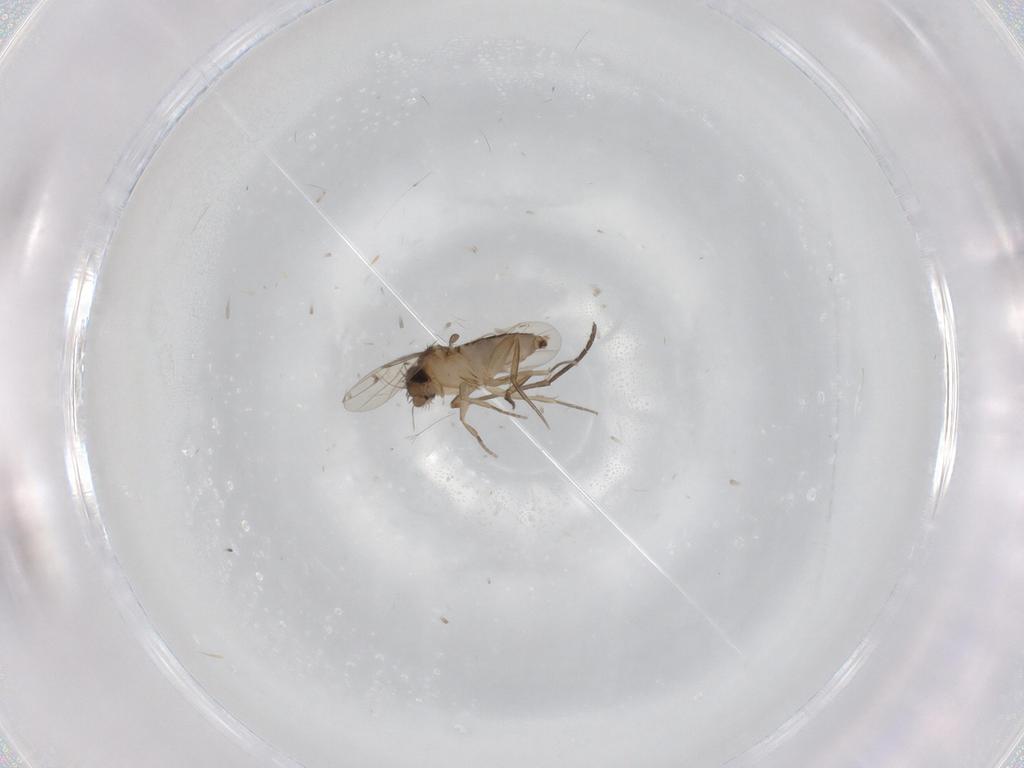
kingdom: Animalia
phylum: Arthropoda
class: Insecta
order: Diptera
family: Phoridae
